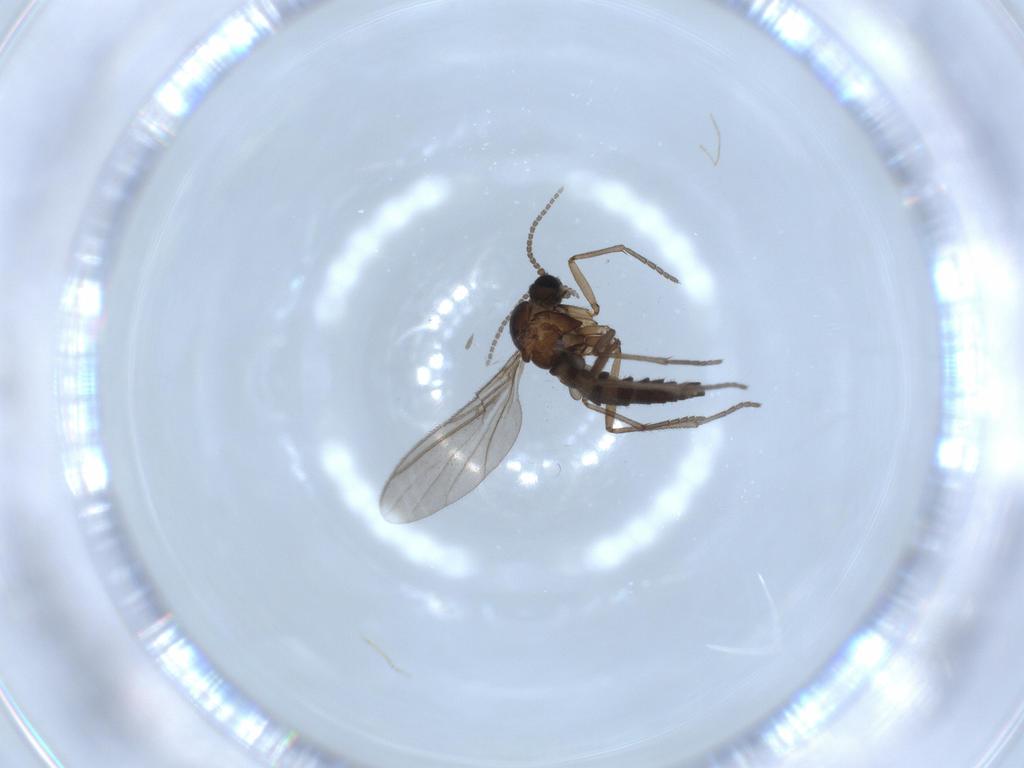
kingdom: Animalia
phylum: Arthropoda
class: Insecta
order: Diptera
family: Sciaridae
